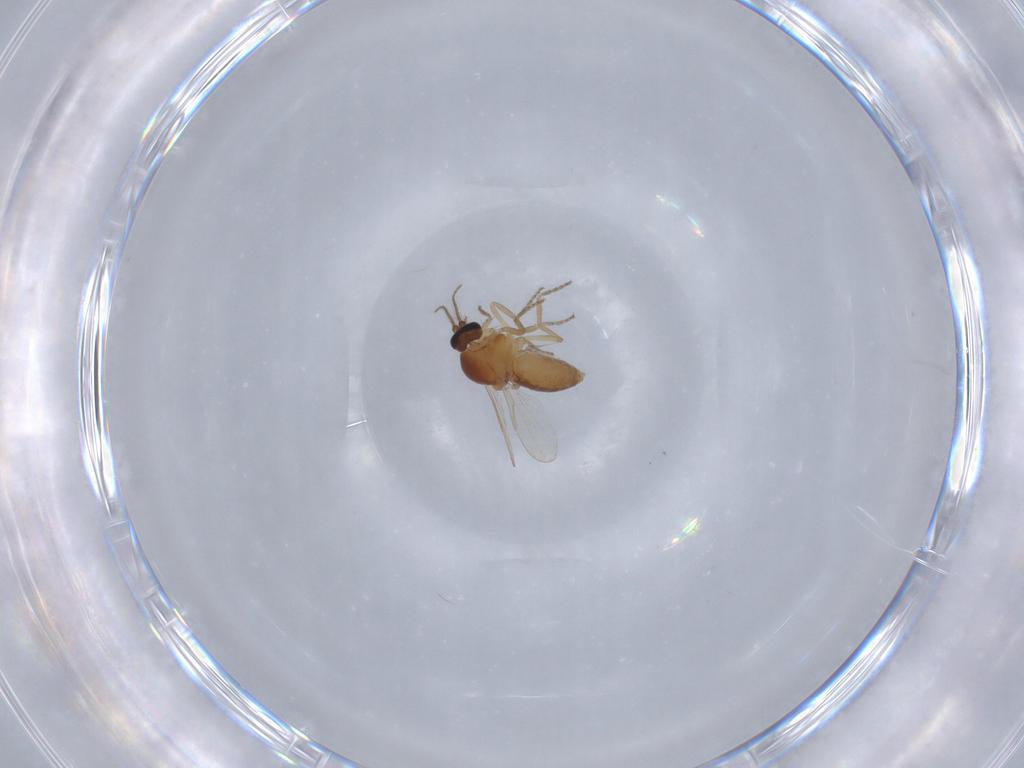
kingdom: Animalia
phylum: Arthropoda
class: Insecta
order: Diptera
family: Ceratopogonidae
